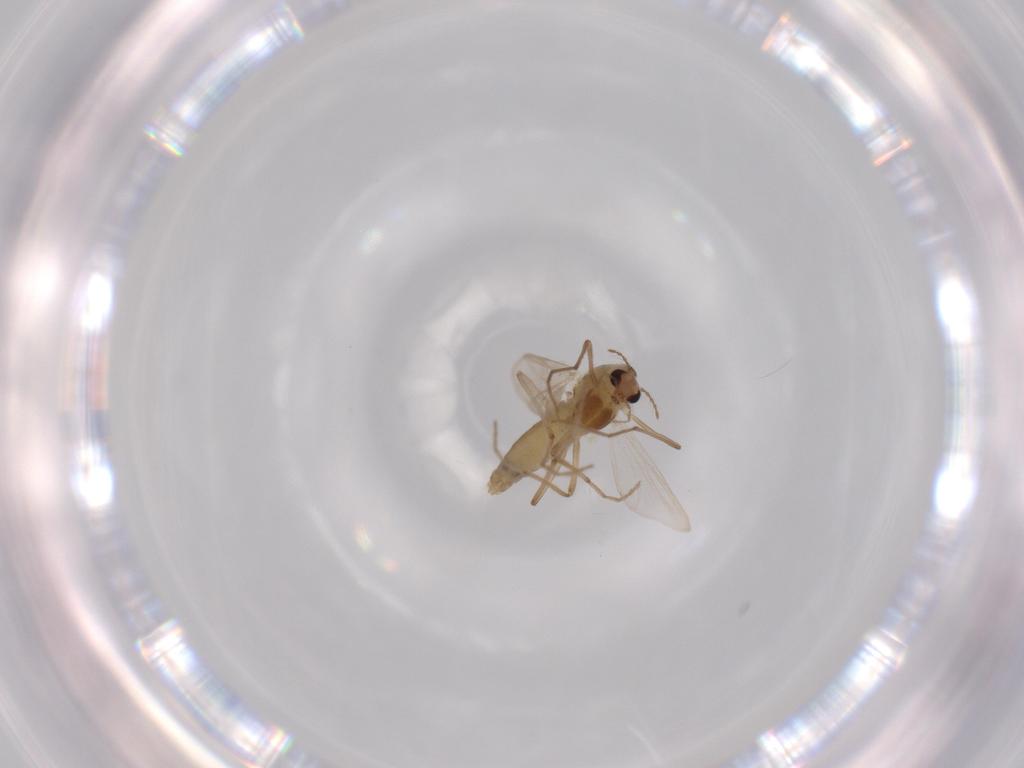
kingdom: Animalia
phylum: Arthropoda
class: Insecta
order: Diptera
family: Chironomidae
